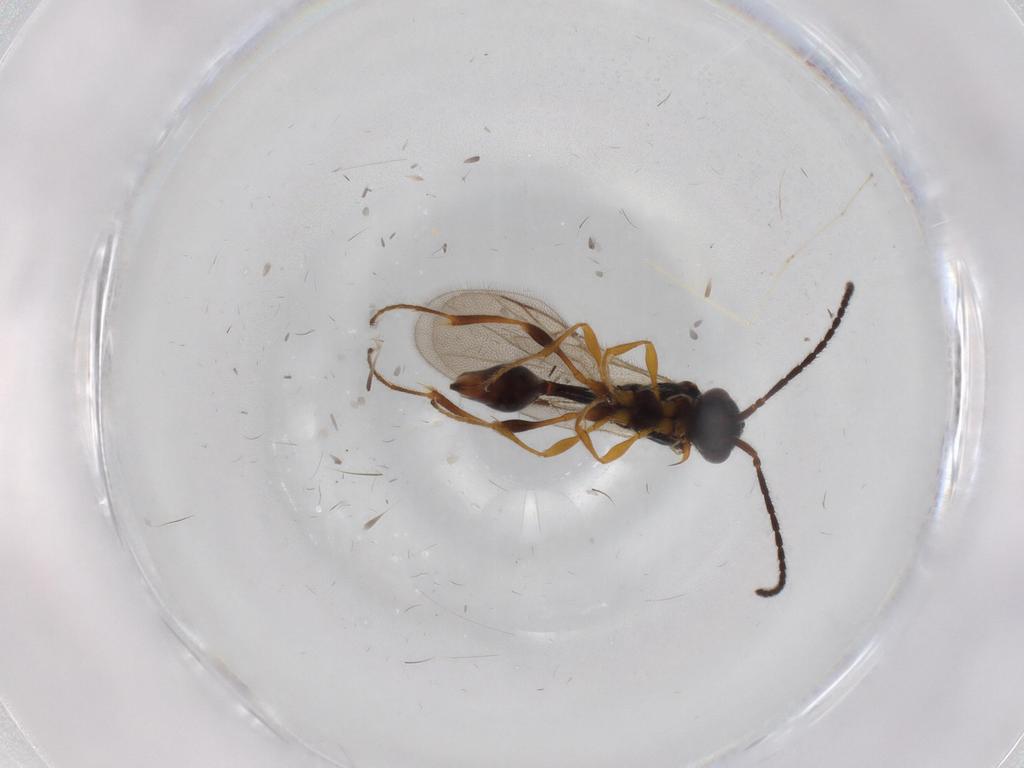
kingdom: Animalia
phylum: Arthropoda
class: Insecta
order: Hymenoptera
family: Diapriidae
